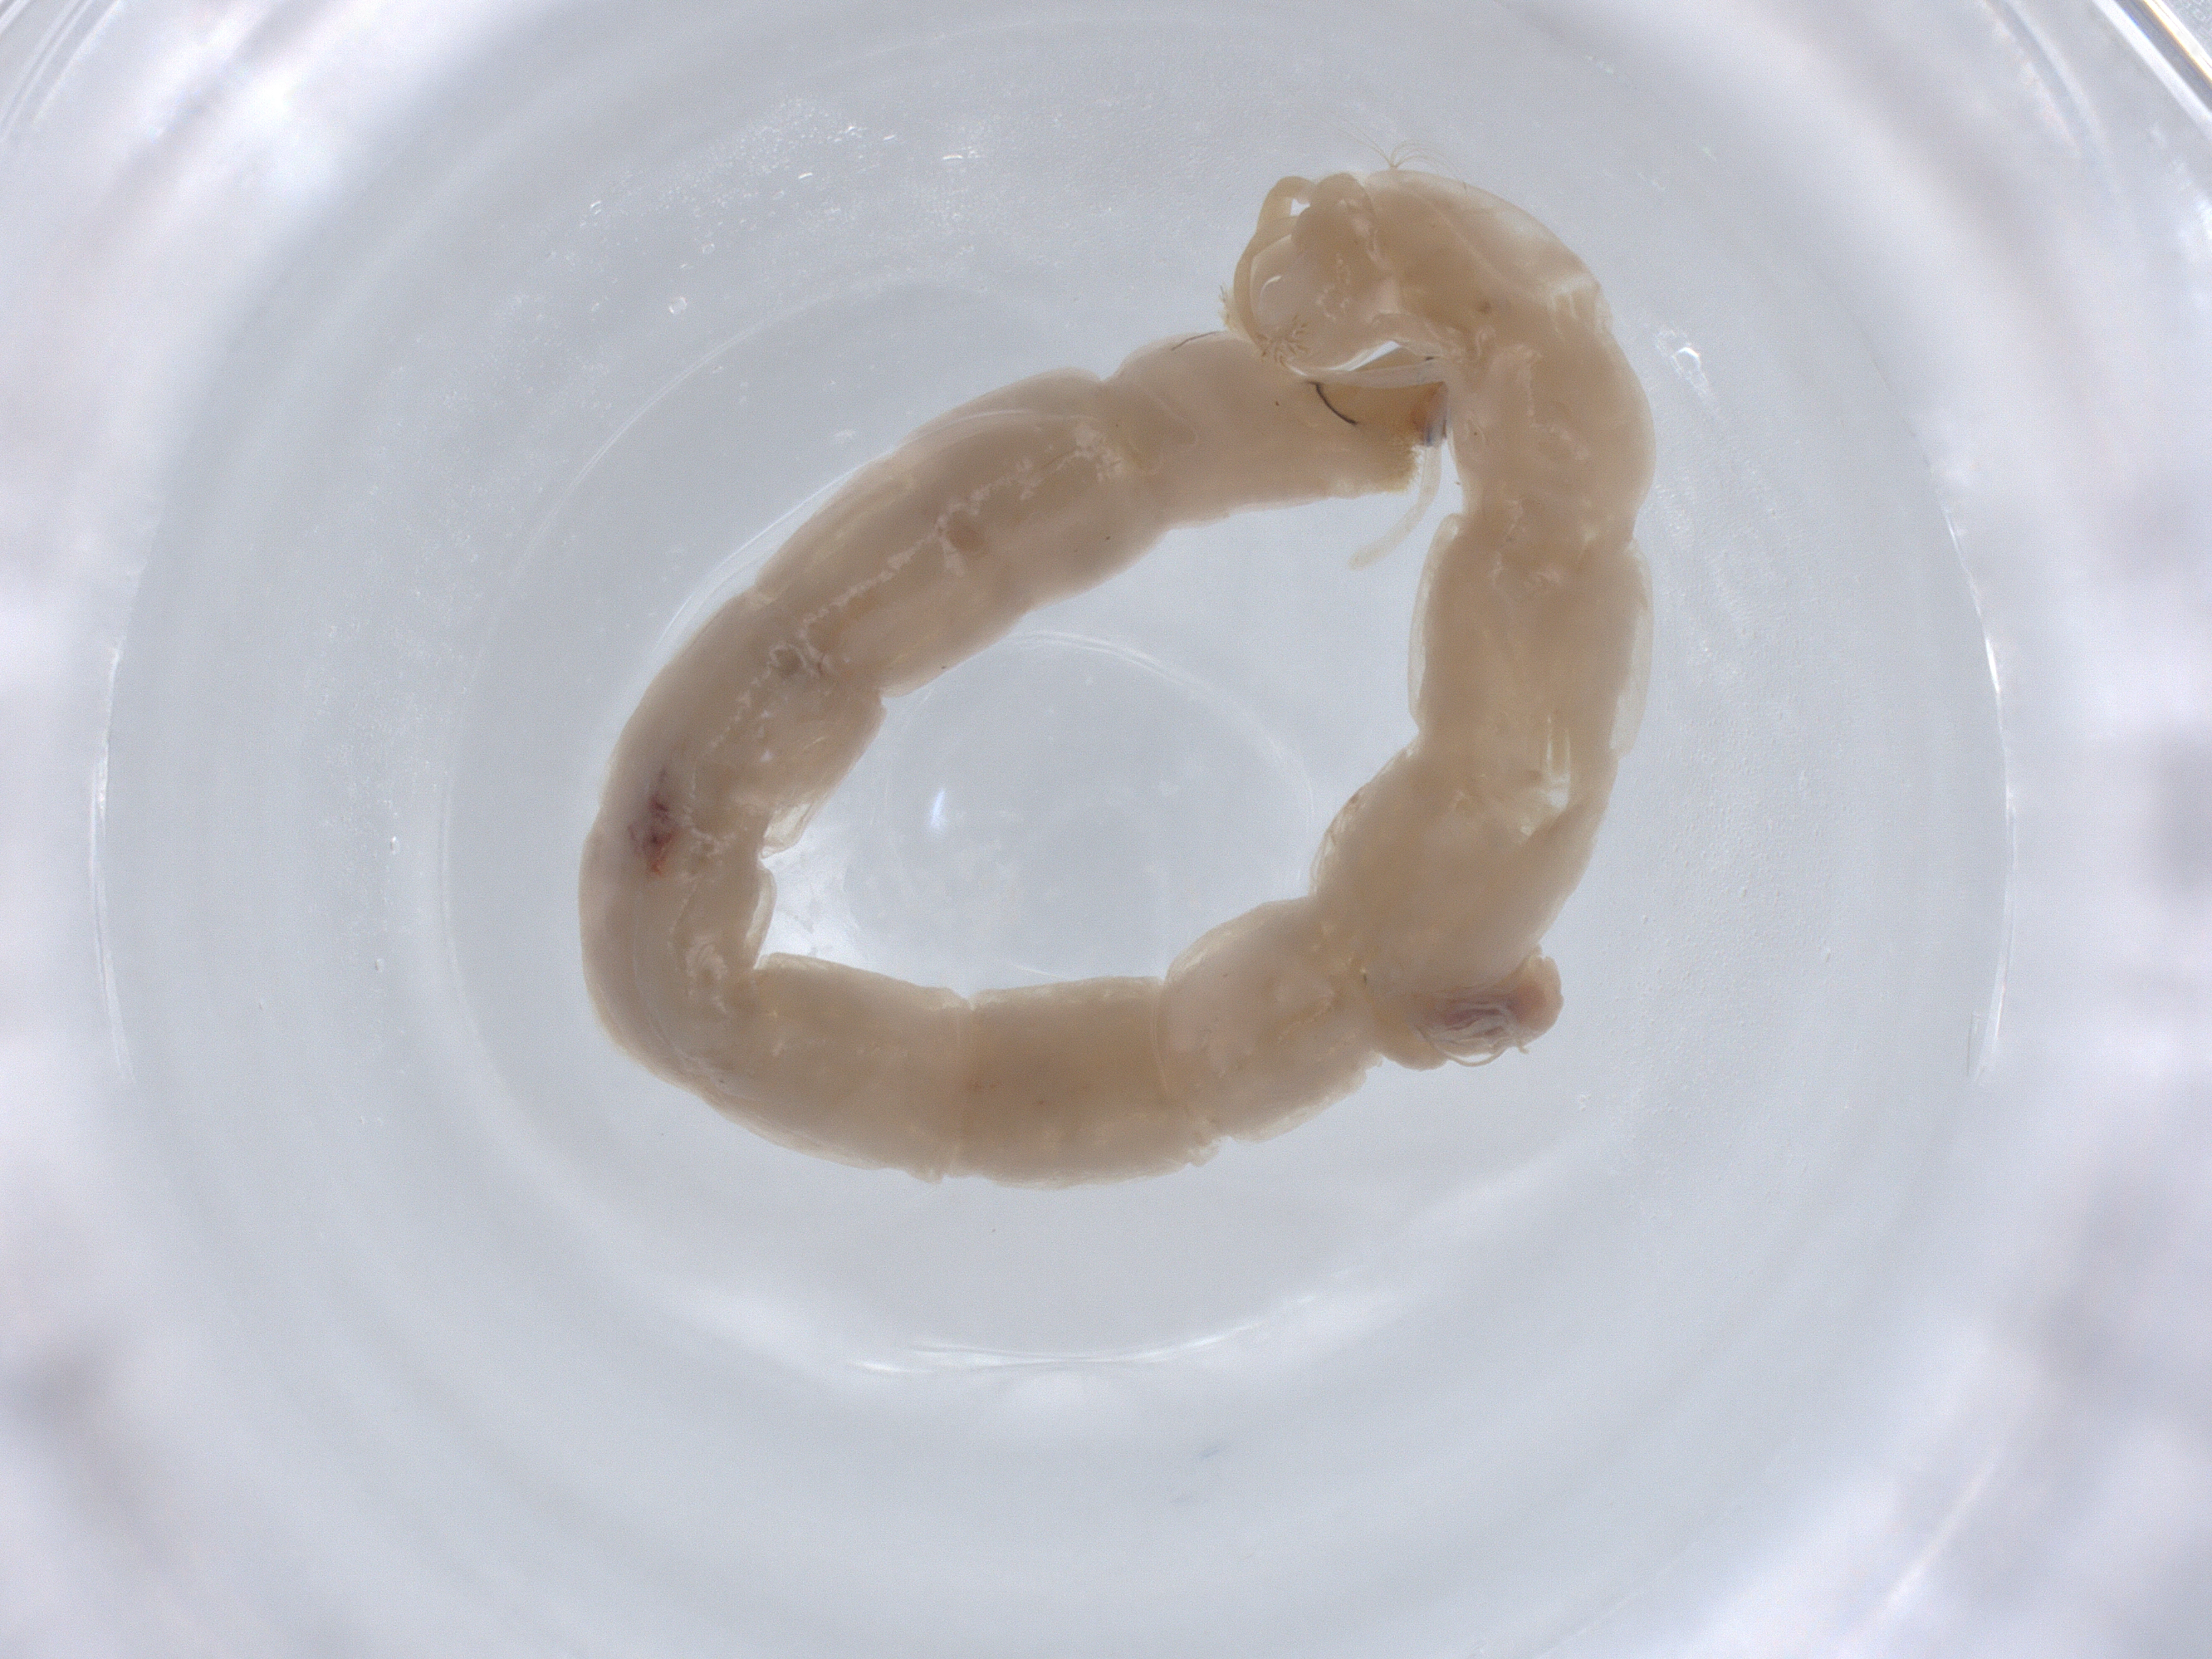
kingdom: Animalia
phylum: Arthropoda
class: Insecta
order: Diptera
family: Chironomidae
